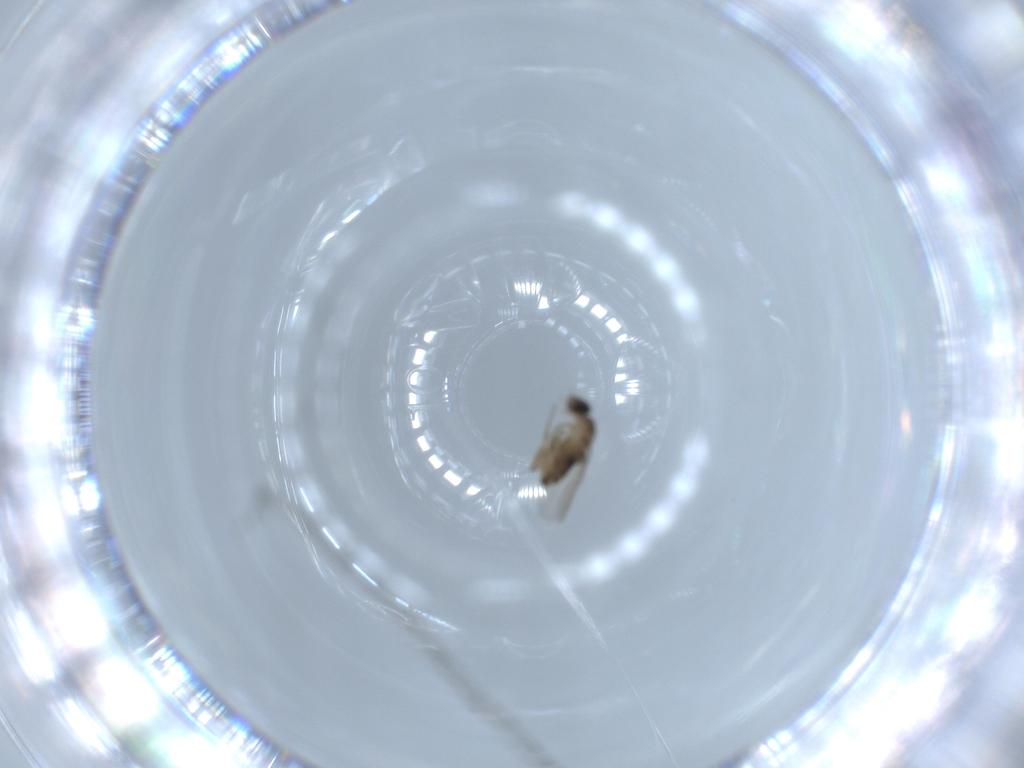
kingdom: Animalia
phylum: Arthropoda
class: Insecta
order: Diptera
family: Phoridae
